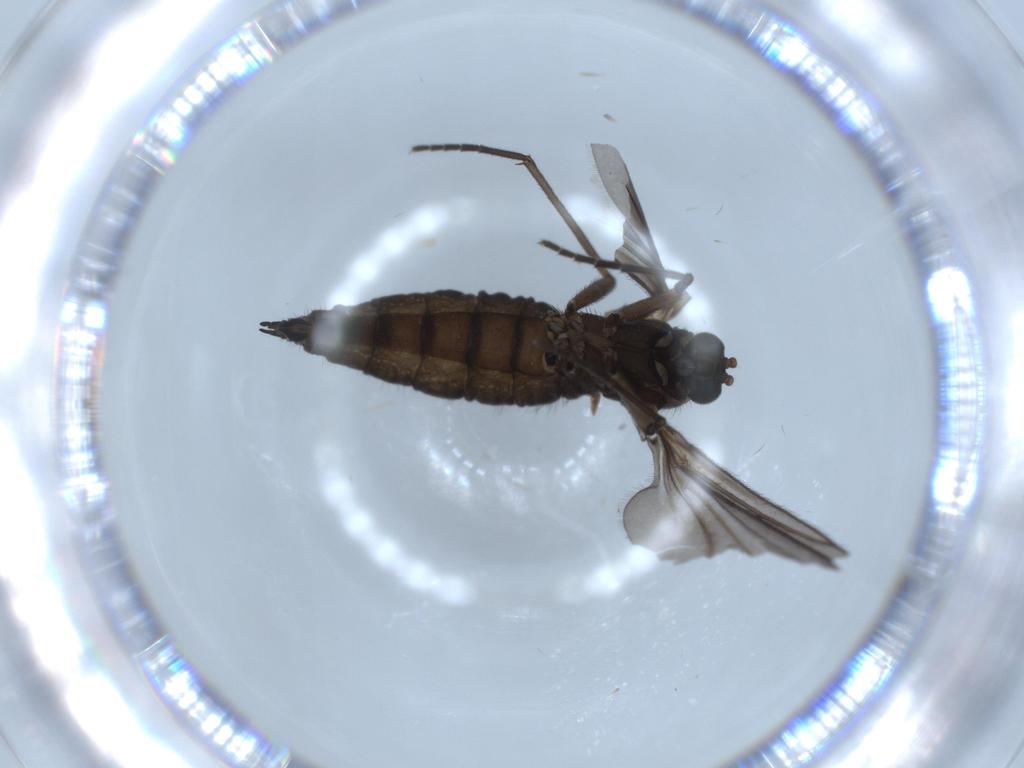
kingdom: Animalia
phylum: Arthropoda
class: Insecta
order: Diptera
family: Sciaridae
